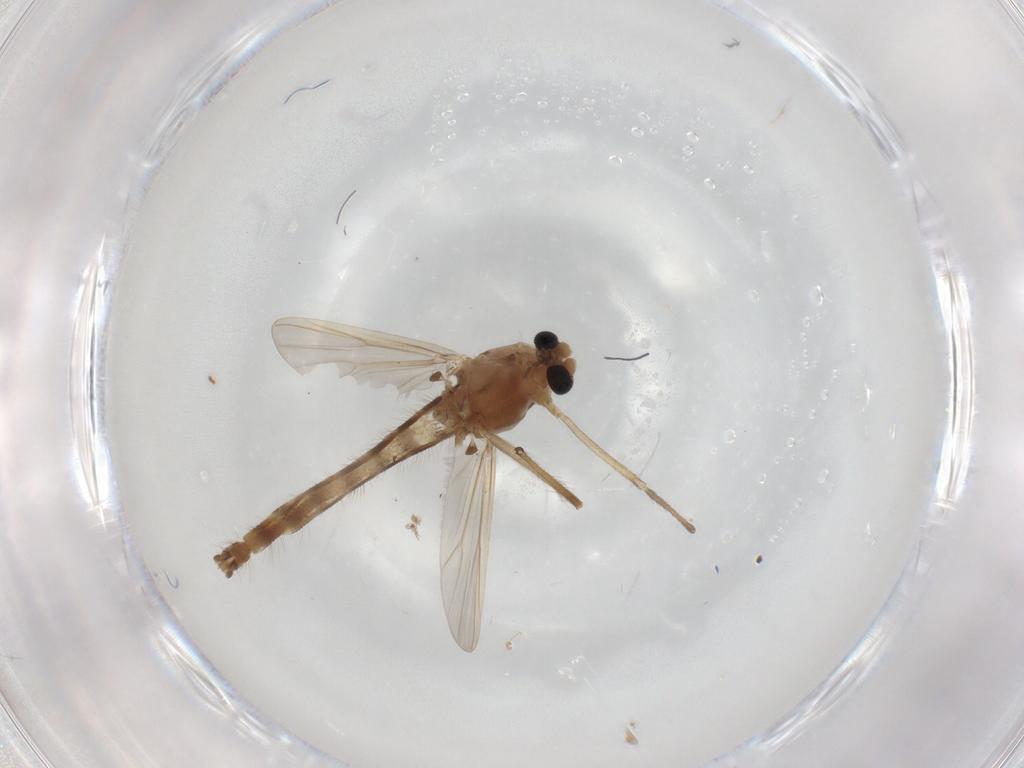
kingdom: Animalia
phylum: Arthropoda
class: Insecta
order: Diptera
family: Chironomidae
